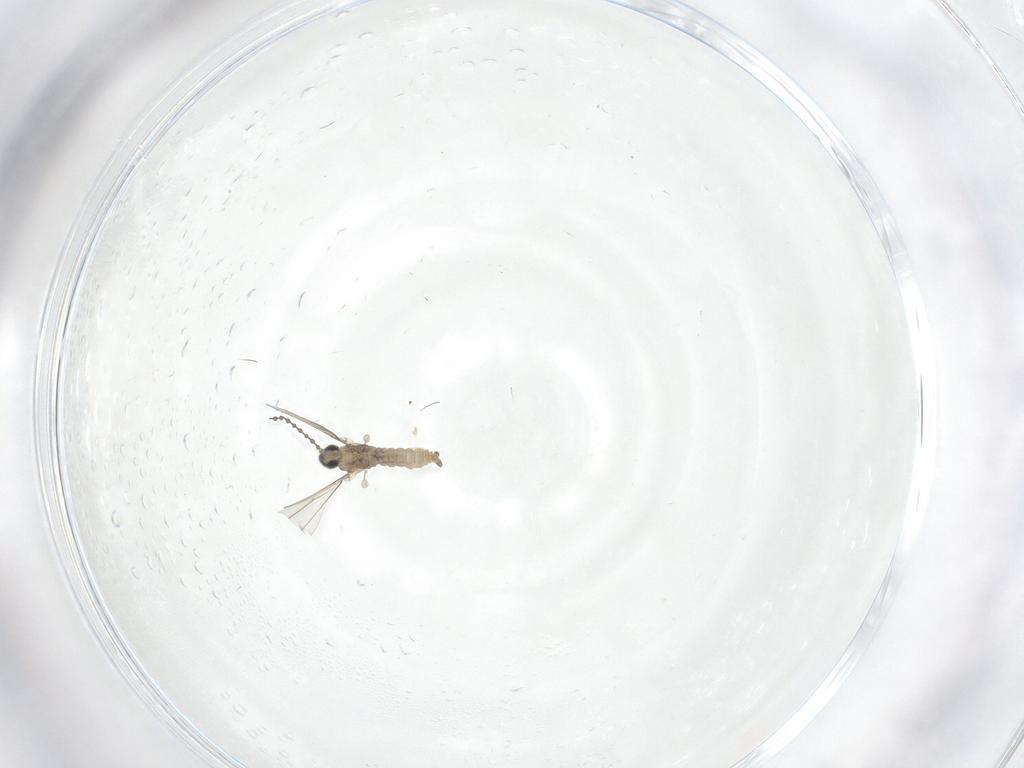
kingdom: Animalia
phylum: Arthropoda
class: Insecta
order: Diptera
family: Cecidomyiidae
